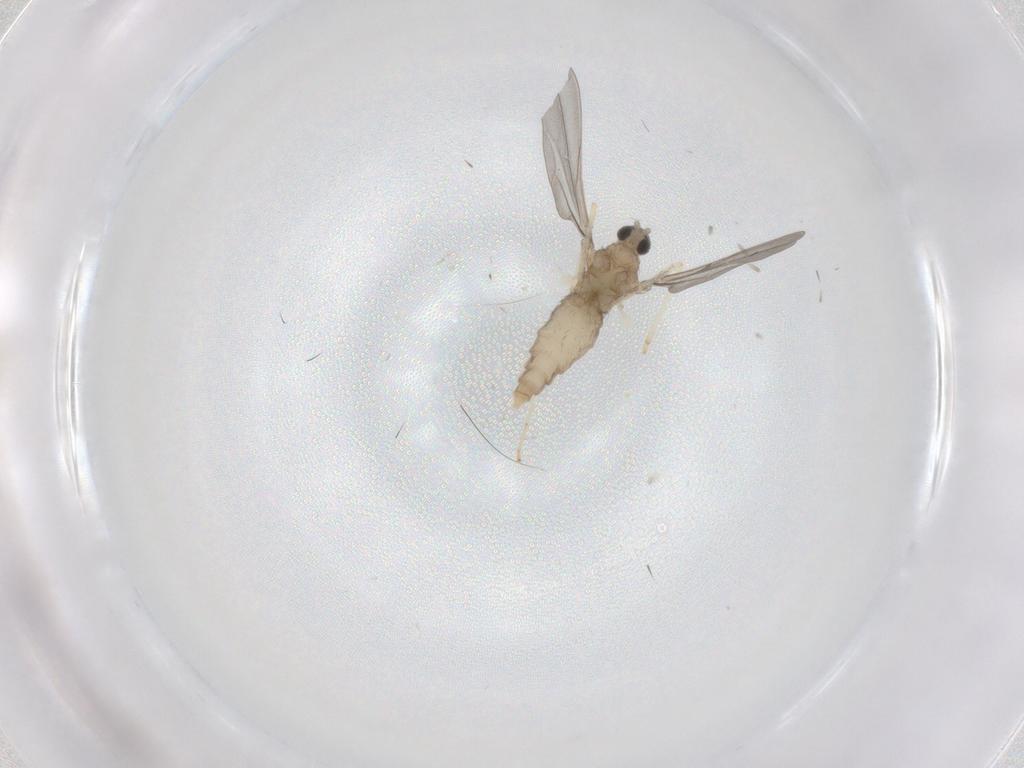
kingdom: Animalia
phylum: Arthropoda
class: Insecta
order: Diptera
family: Cecidomyiidae
